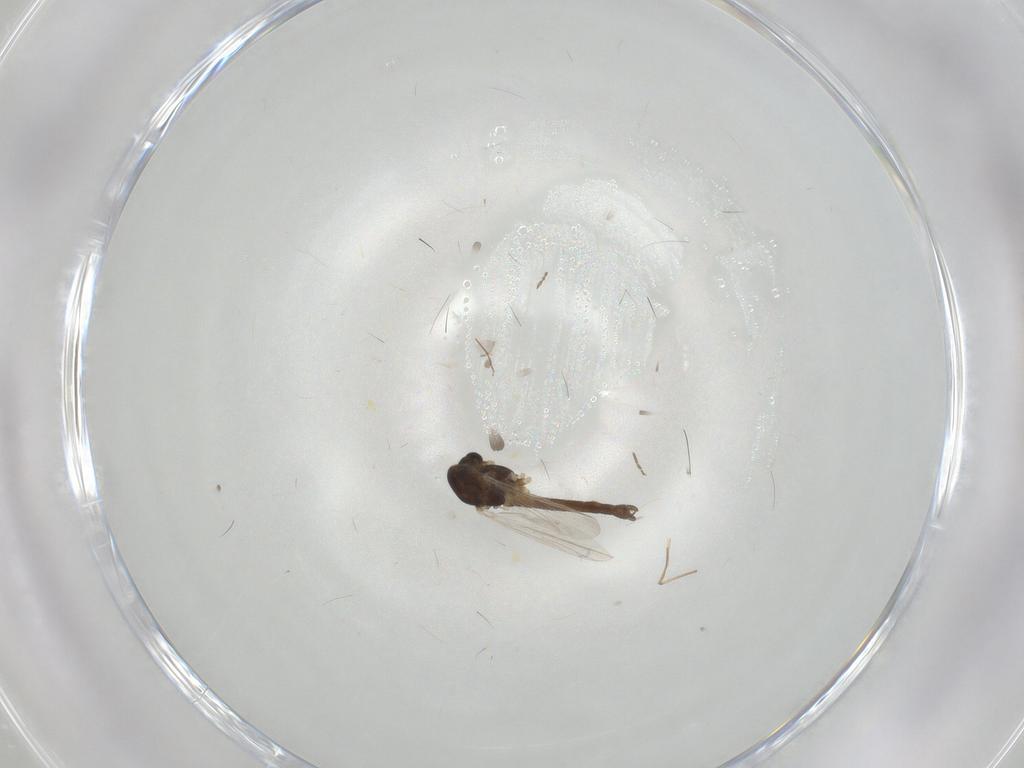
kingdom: Animalia
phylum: Arthropoda
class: Insecta
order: Diptera
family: Chironomidae
